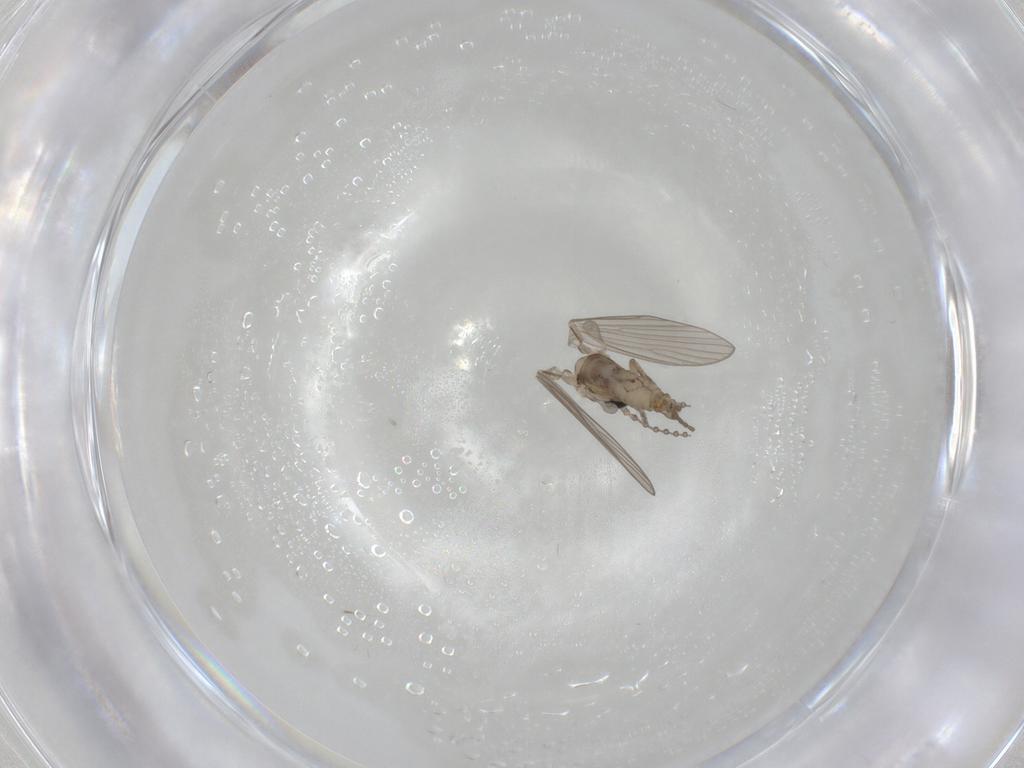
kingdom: Animalia
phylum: Arthropoda
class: Insecta
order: Diptera
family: Psychodidae
